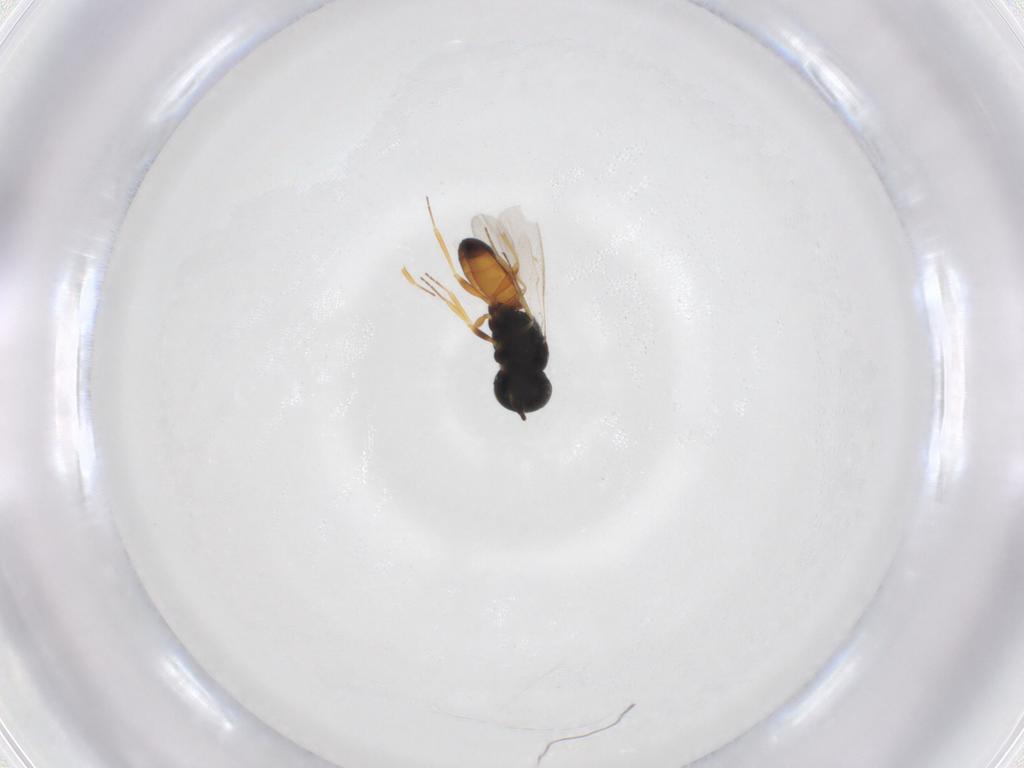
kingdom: Animalia
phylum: Arthropoda
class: Insecta
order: Hymenoptera
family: Scelionidae
